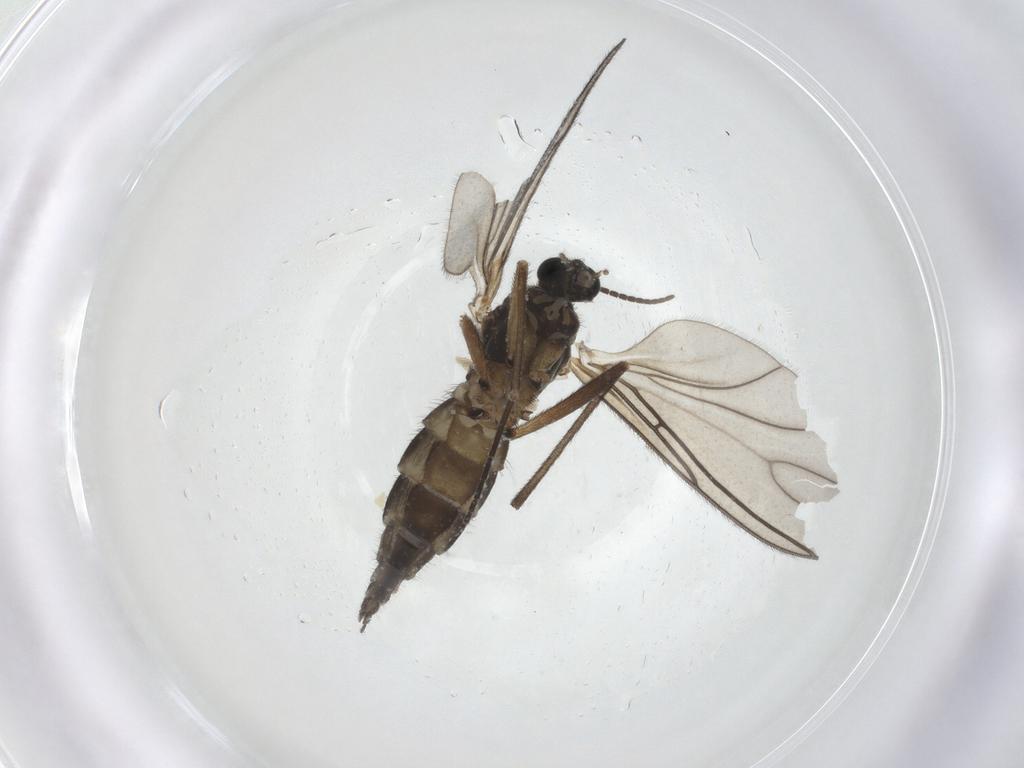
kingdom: Animalia
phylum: Arthropoda
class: Insecta
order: Diptera
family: Sciaridae
